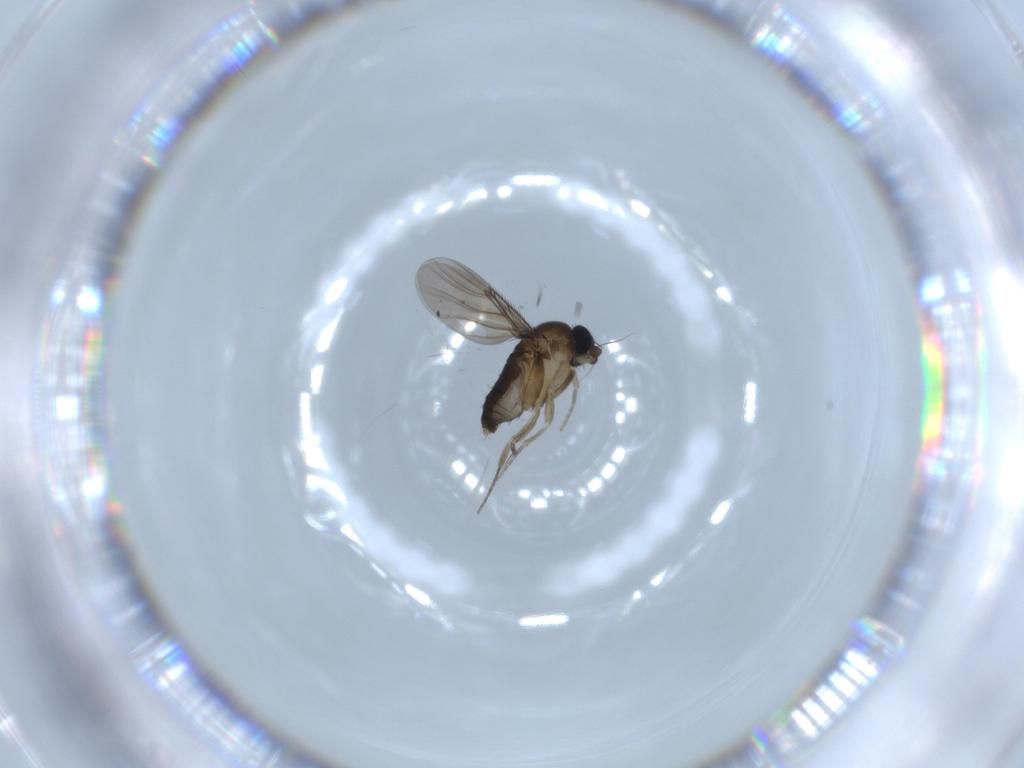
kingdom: Animalia
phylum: Arthropoda
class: Insecta
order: Diptera
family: Phoridae
